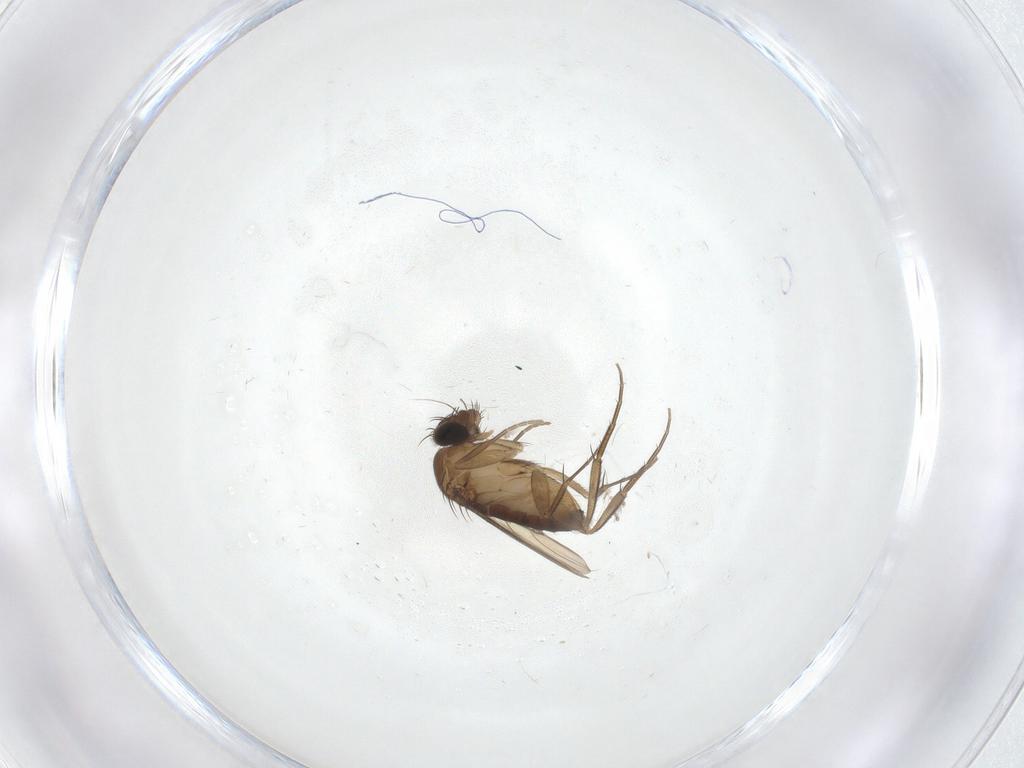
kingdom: Animalia
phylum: Arthropoda
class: Insecta
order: Diptera
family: Phoridae
